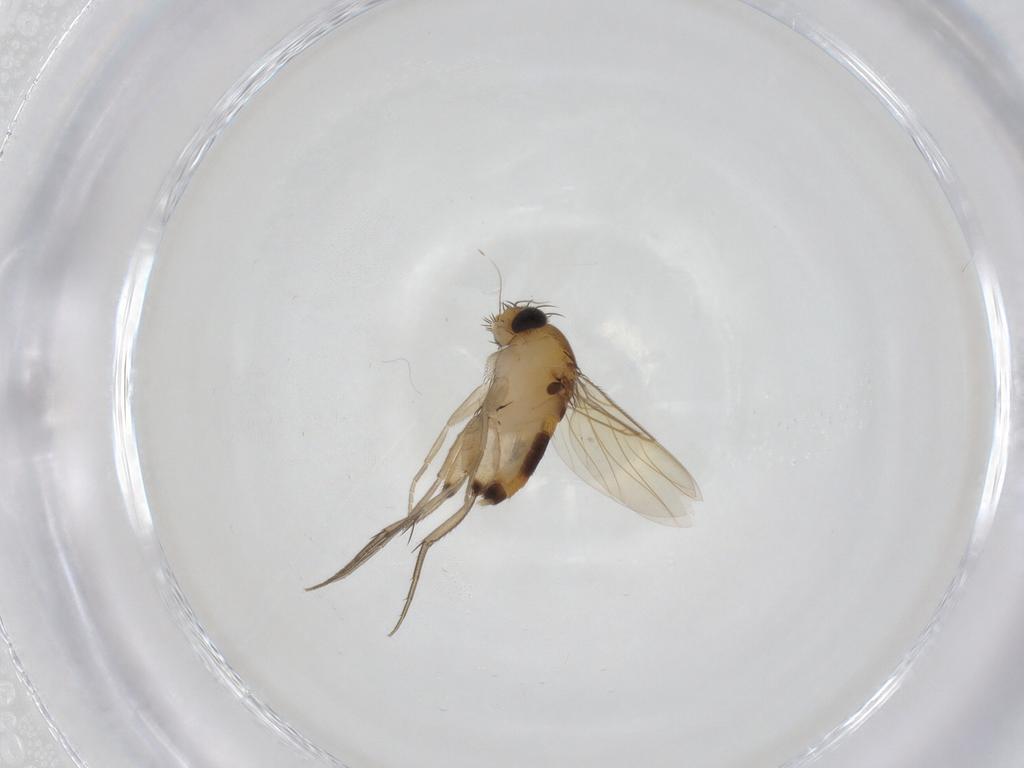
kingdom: Animalia
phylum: Arthropoda
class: Insecta
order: Diptera
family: Phoridae
